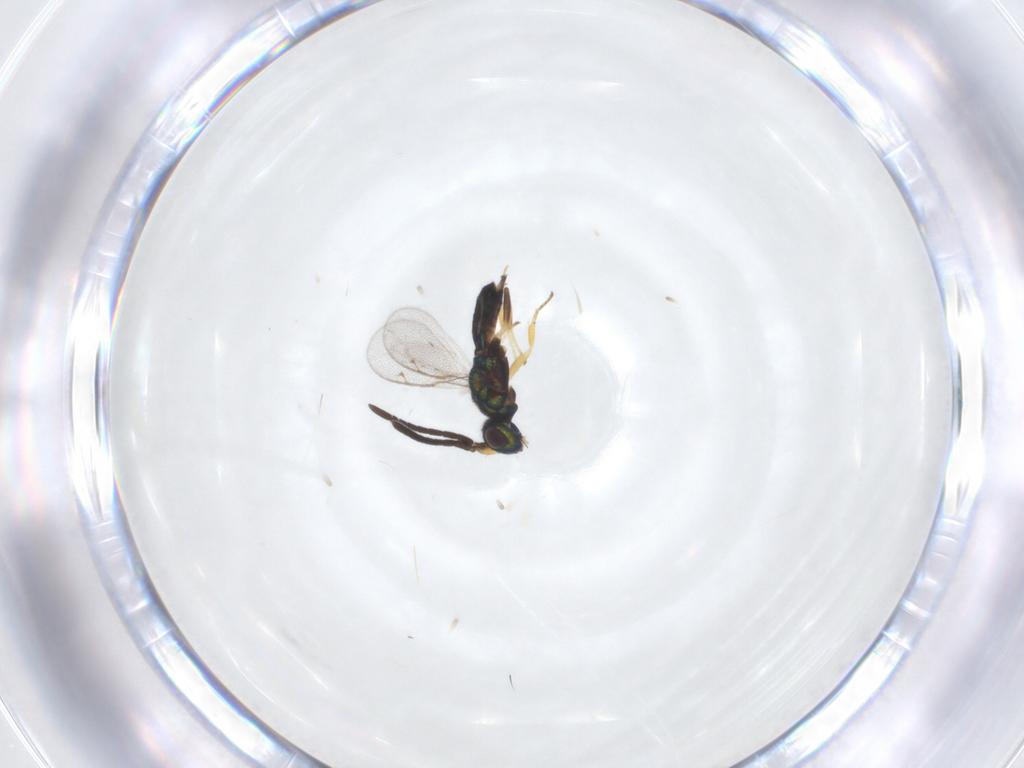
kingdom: Animalia
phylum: Arthropoda
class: Insecta
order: Hymenoptera
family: Eupelmidae
